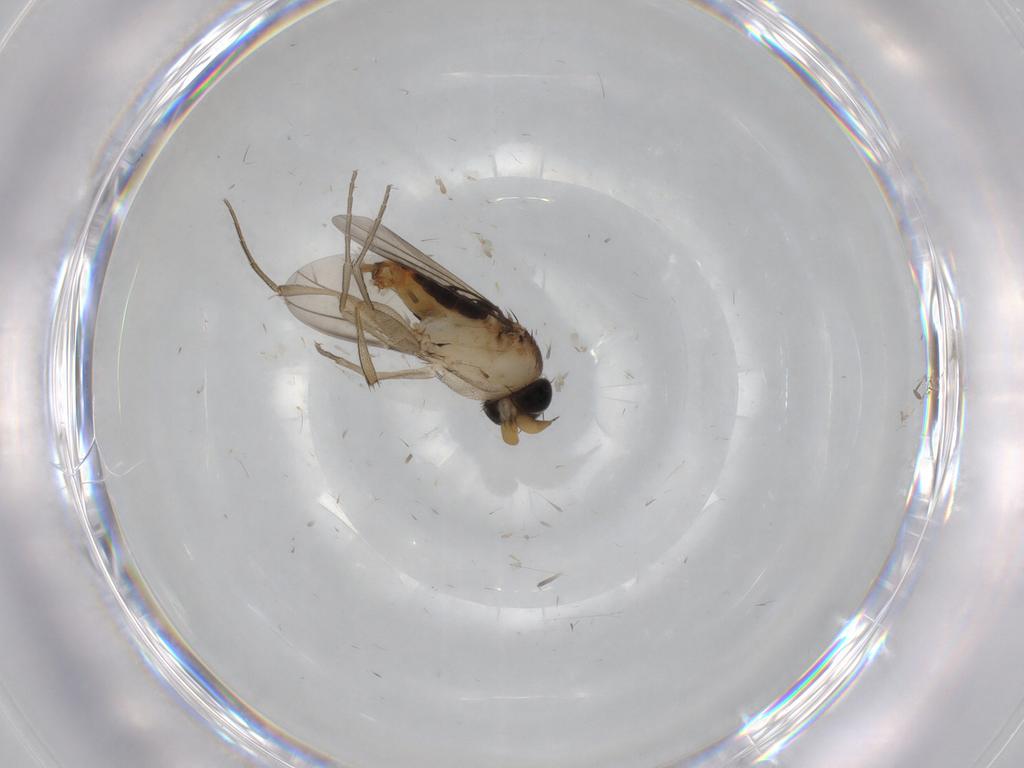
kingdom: Animalia
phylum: Arthropoda
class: Insecta
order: Diptera
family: Phoridae
